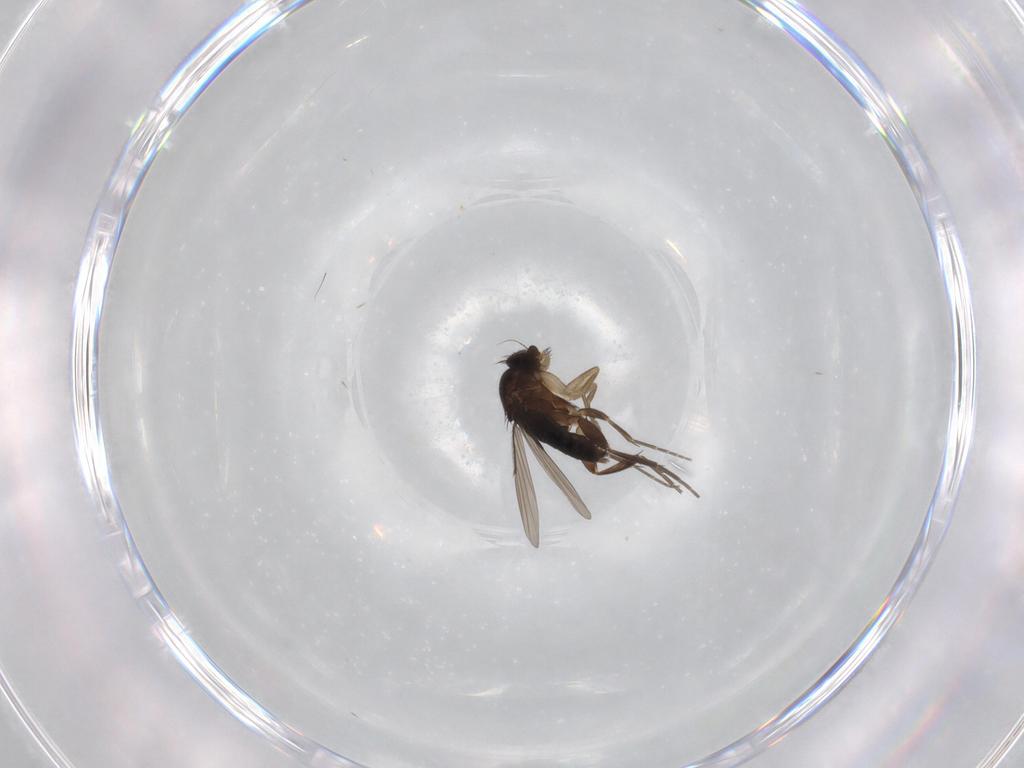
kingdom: Animalia
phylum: Arthropoda
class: Insecta
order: Diptera
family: Phoridae
